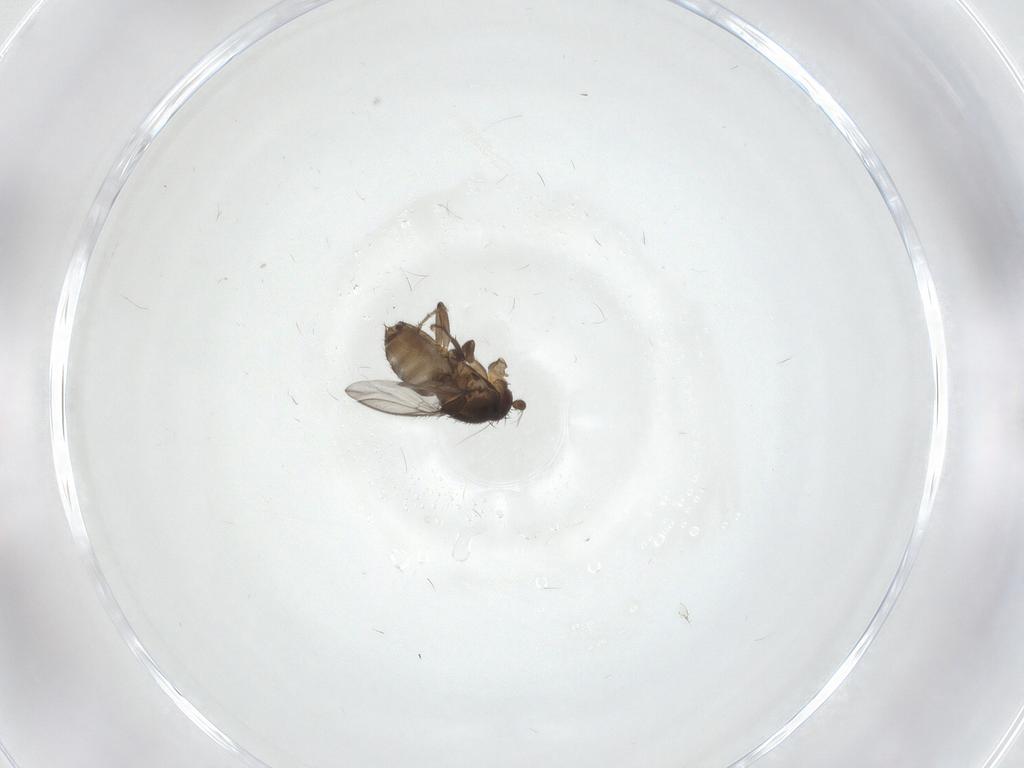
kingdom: Animalia
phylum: Arthropoda
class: Insecta
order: Diptera
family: Cecidomyiidae
